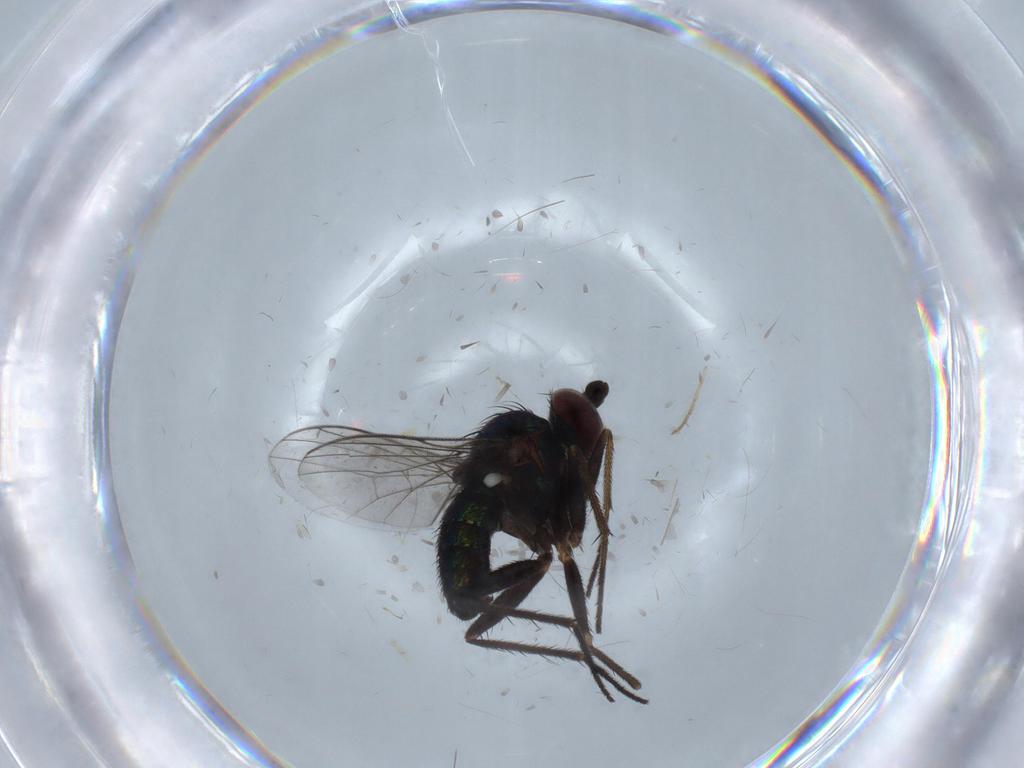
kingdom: Animalia
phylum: Arthropoda
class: Insecta
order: Diptera
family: Dolichopodidae
